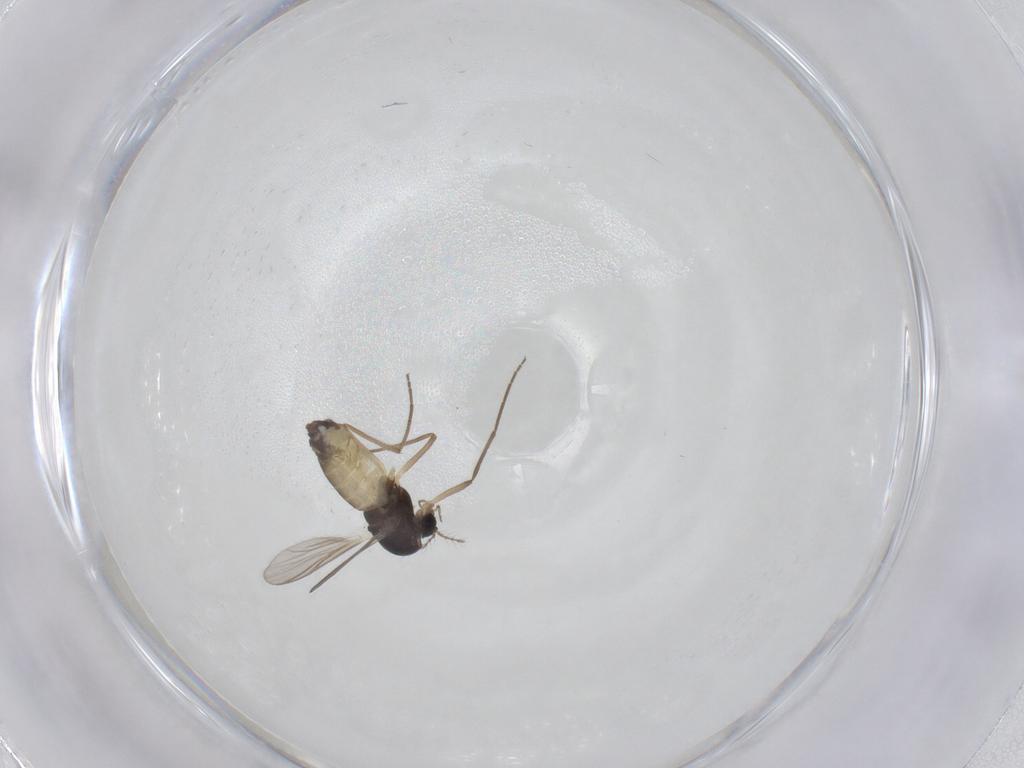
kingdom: Animalia
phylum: Arthropoda
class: Insecta
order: Diptera
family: Chironomidae
